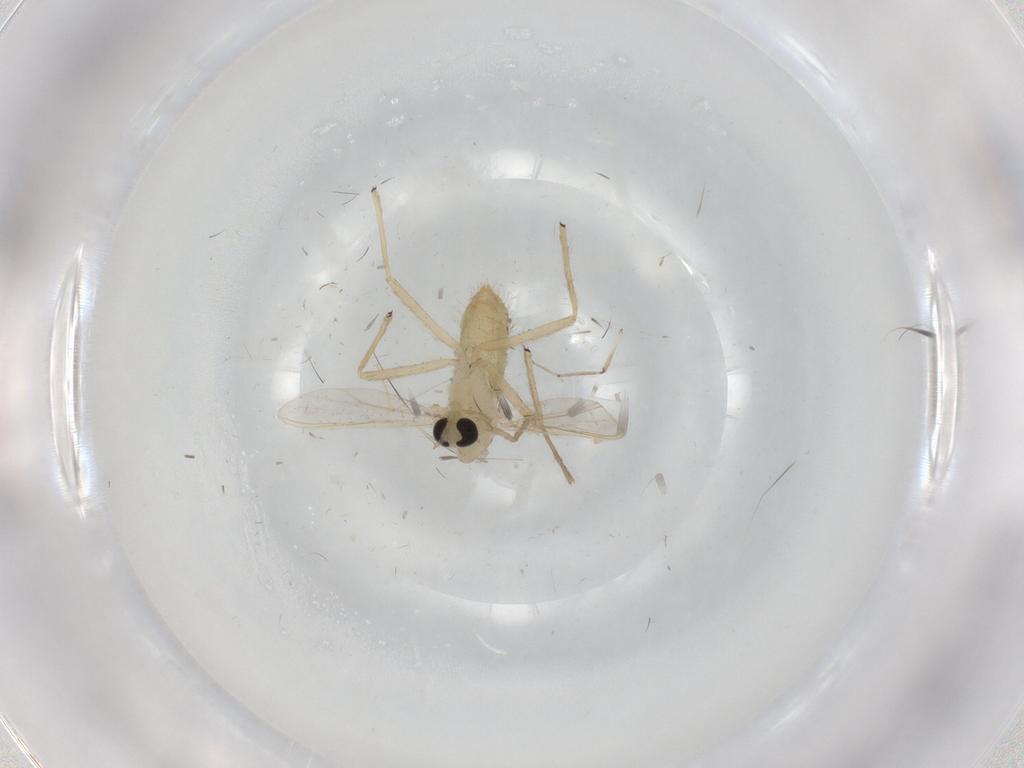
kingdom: Animalia
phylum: Arthropoda
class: Insecta
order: Diptera
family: Cecidomyiidae
